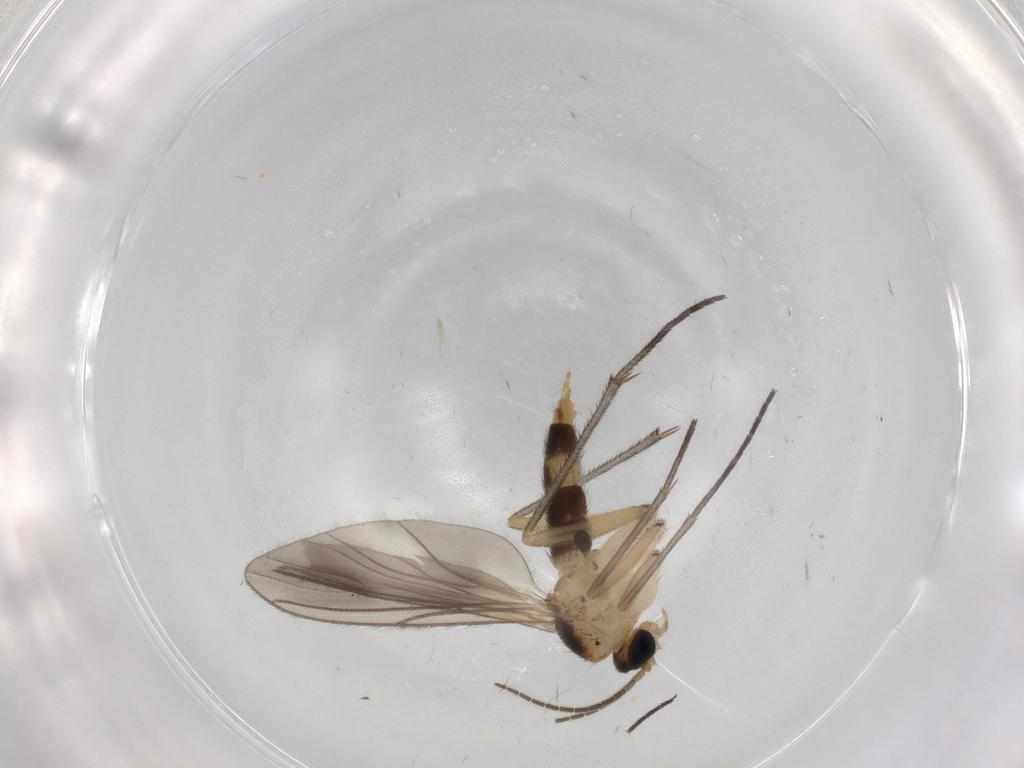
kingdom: Animalia
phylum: Arthropoda
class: Insecta
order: Diptera
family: Sciaridae
